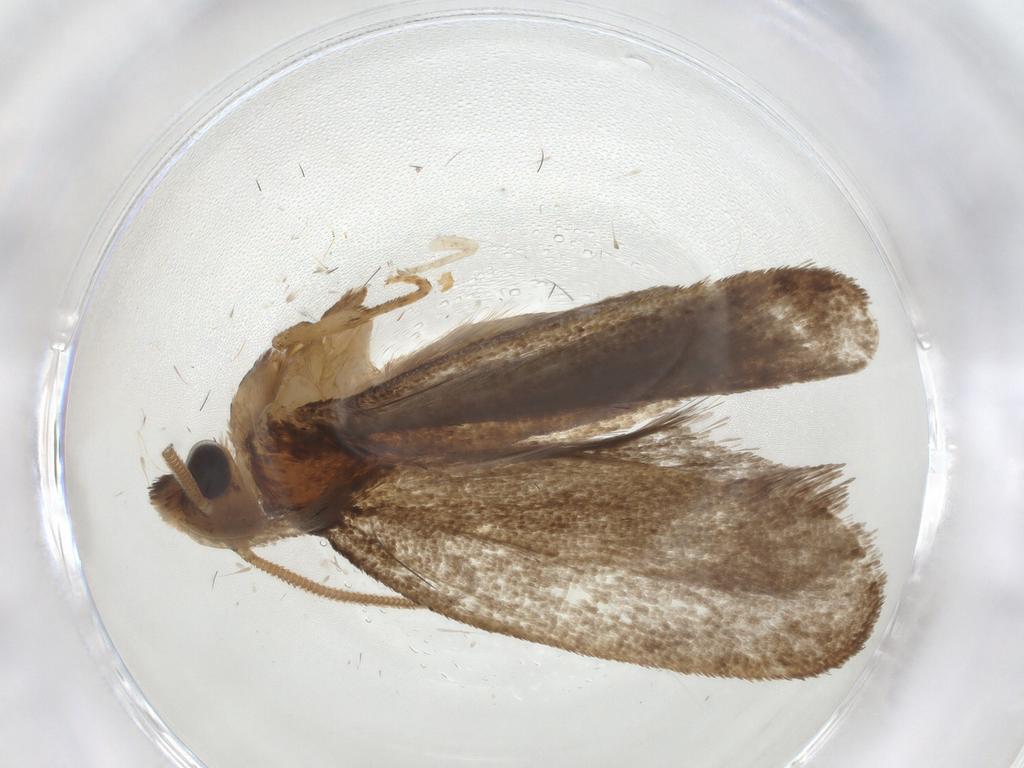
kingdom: Animalia
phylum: Arthropoda
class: Insecta
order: Lepidoptera
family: Tineidae
